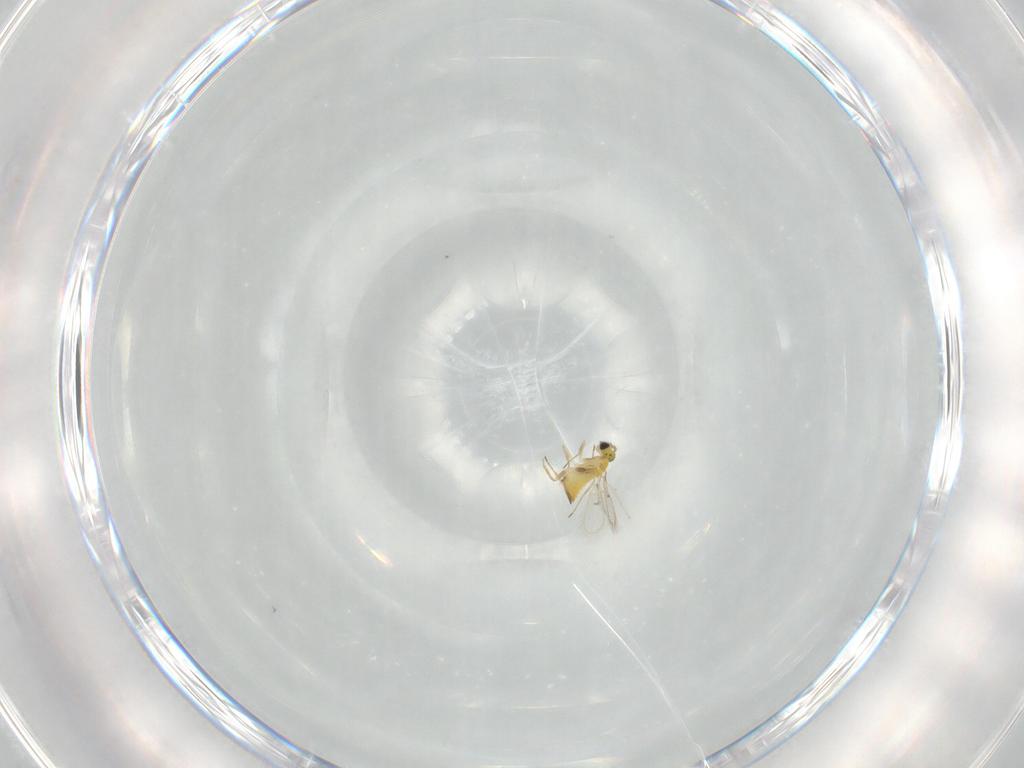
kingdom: Animalia
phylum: Arthropoda
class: Insecta
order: Hymenoptera
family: Trichogrammatidae
